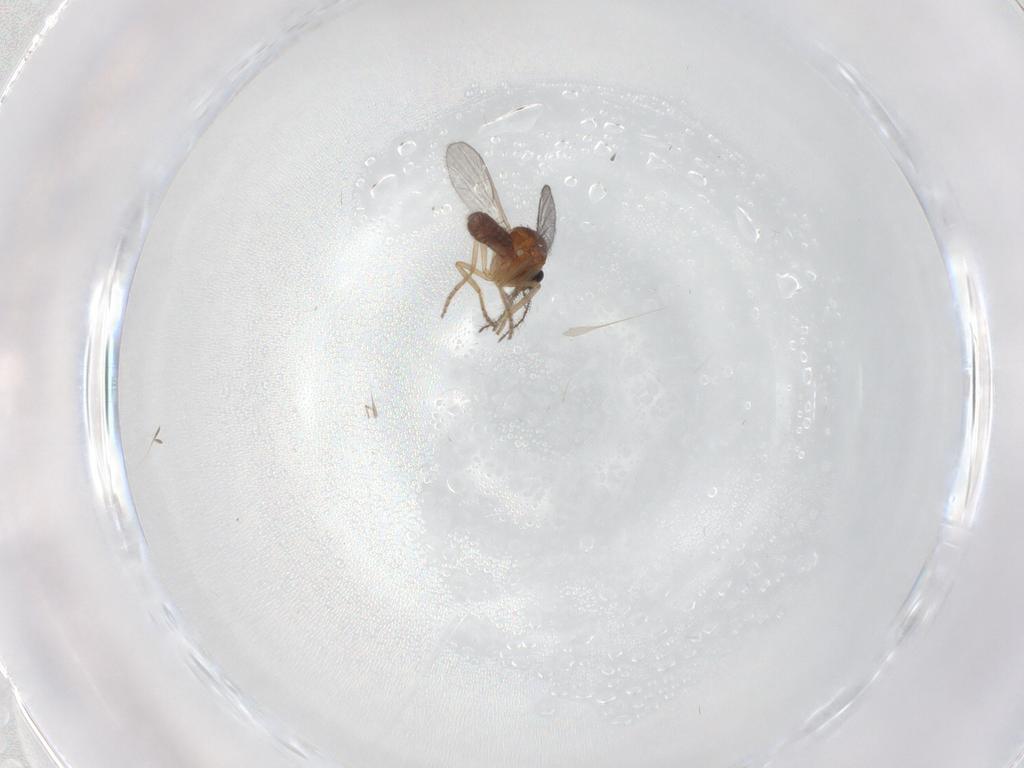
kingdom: Animalia
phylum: Arthropoda
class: Insecta
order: Diptera
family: Ceratopogonidae
